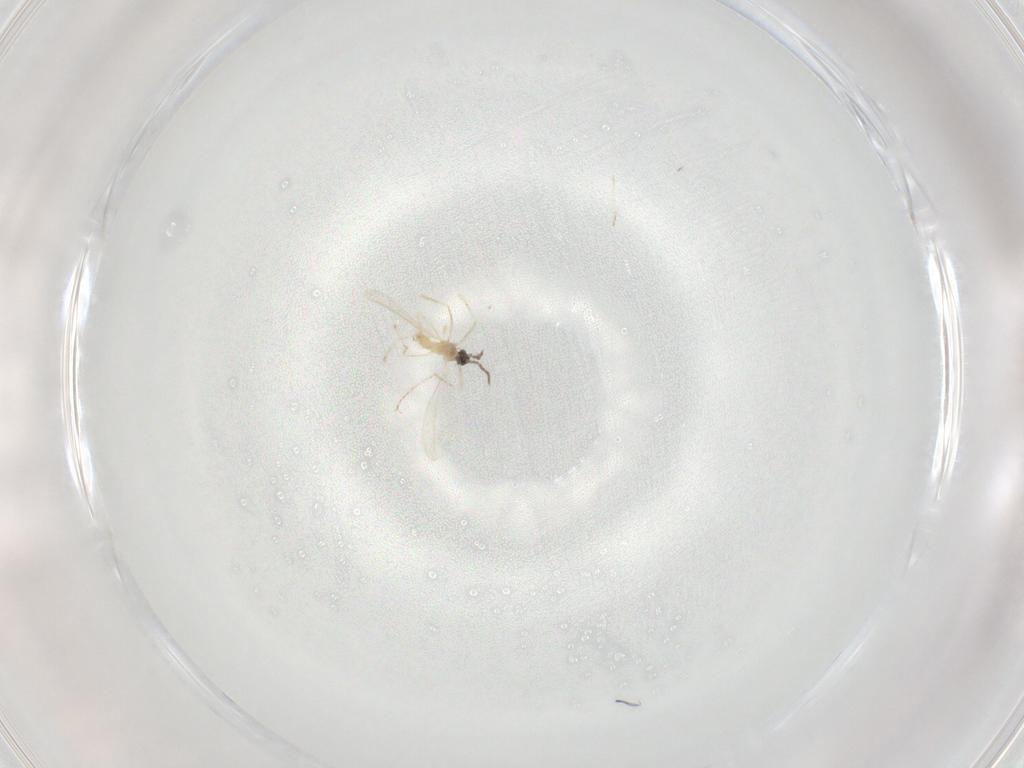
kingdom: Animalia
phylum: Arthropoda
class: Insecta
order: Diptera
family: Cecidomyiidae
